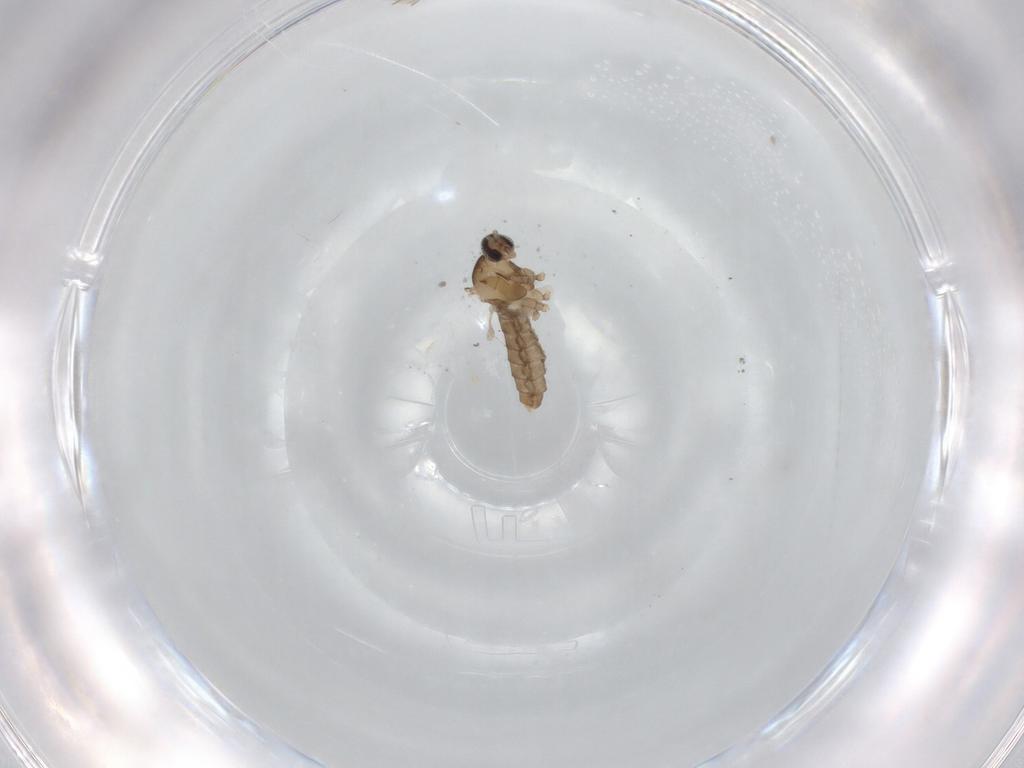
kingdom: Animalia
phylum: Arthropoda
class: Insecta
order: Diptera
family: Cecidomyiidae
